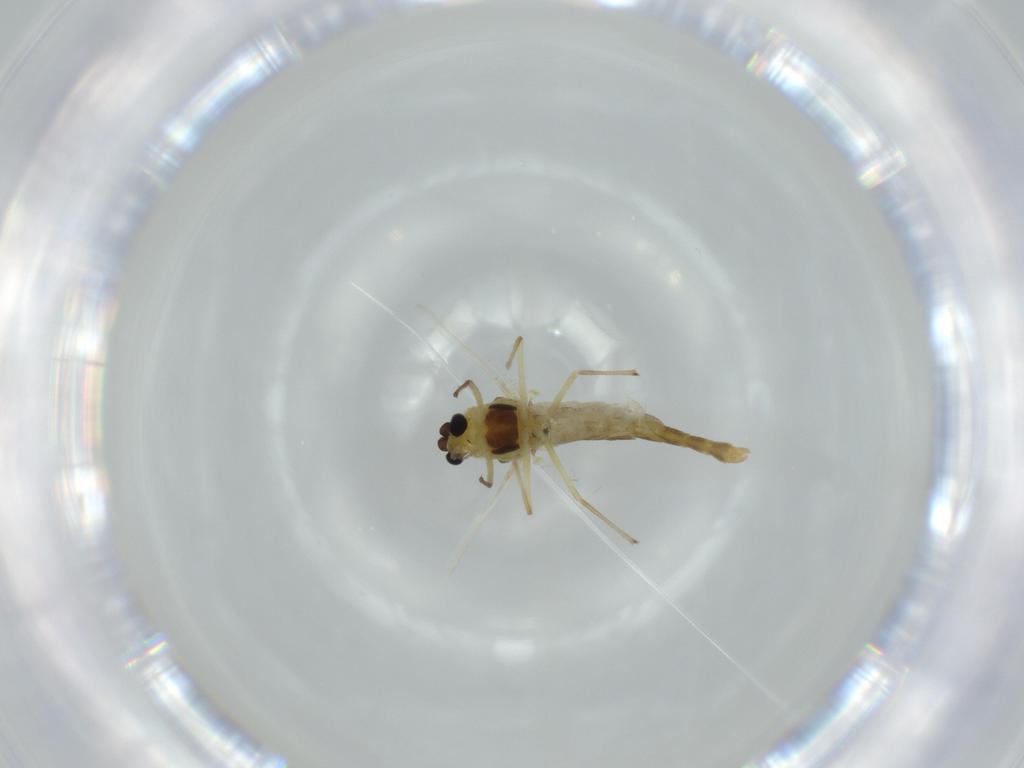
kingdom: Animalia
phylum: Arthropoda
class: Insecta
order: Diptera
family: Chironomidae
